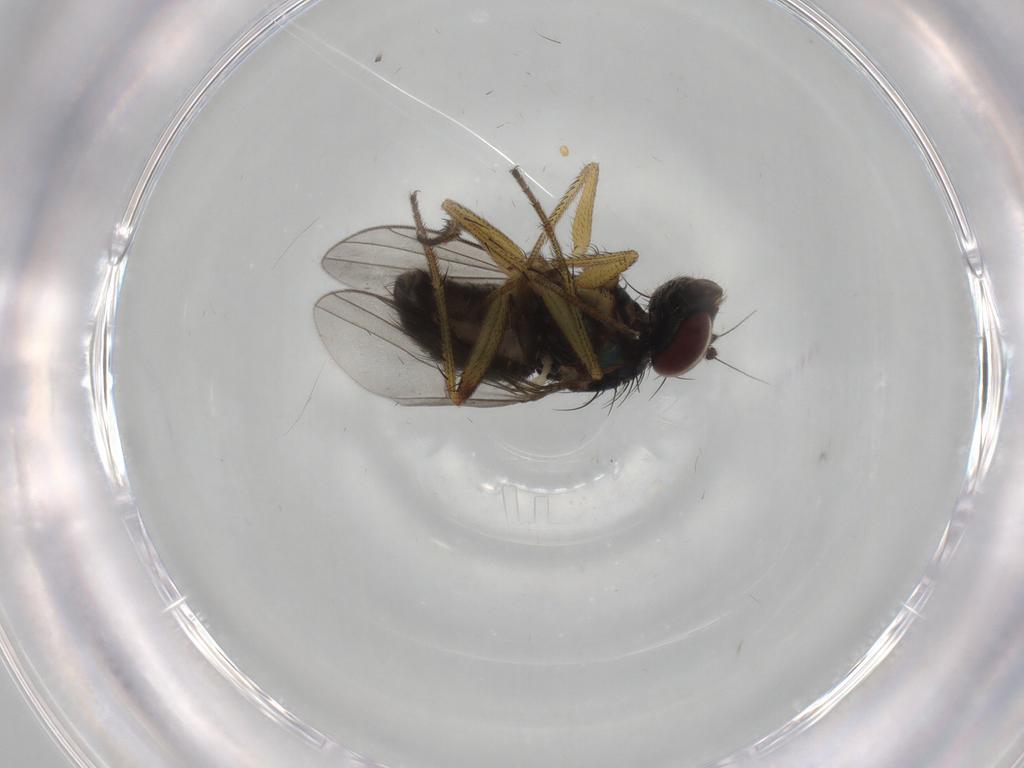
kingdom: Animalia
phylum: Arthropoda
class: Insecta
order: Diptera
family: Dolichopodidae
